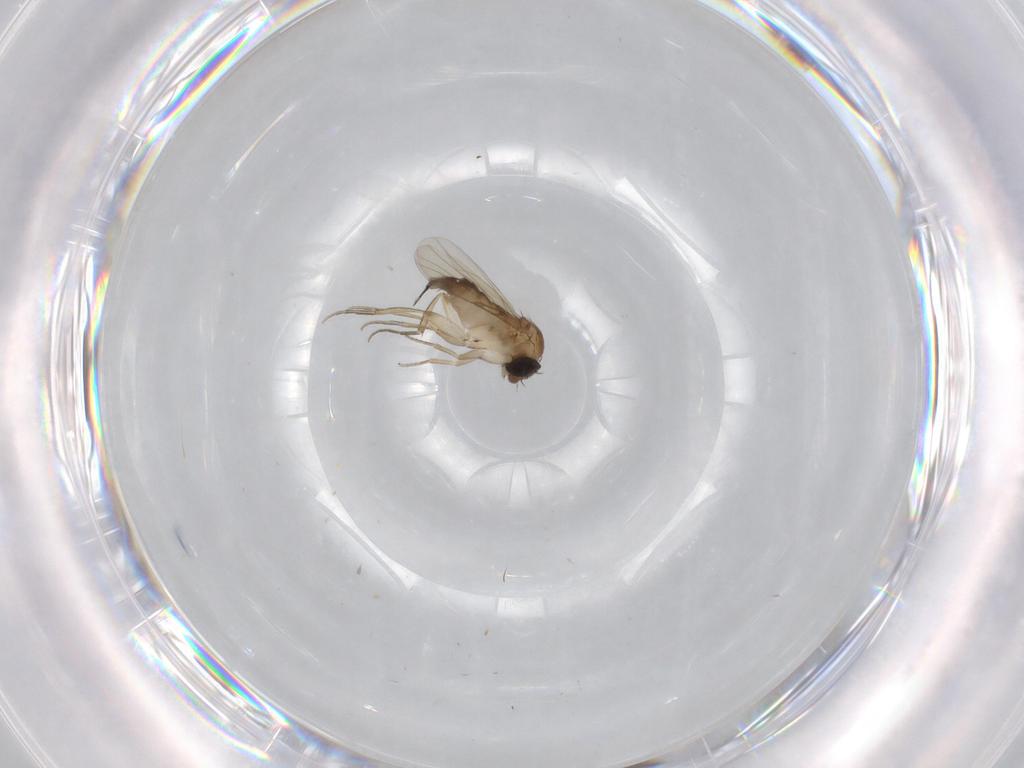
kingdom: Animalia
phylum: Arthropoda
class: Insecta
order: Diptera
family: Phoridae
